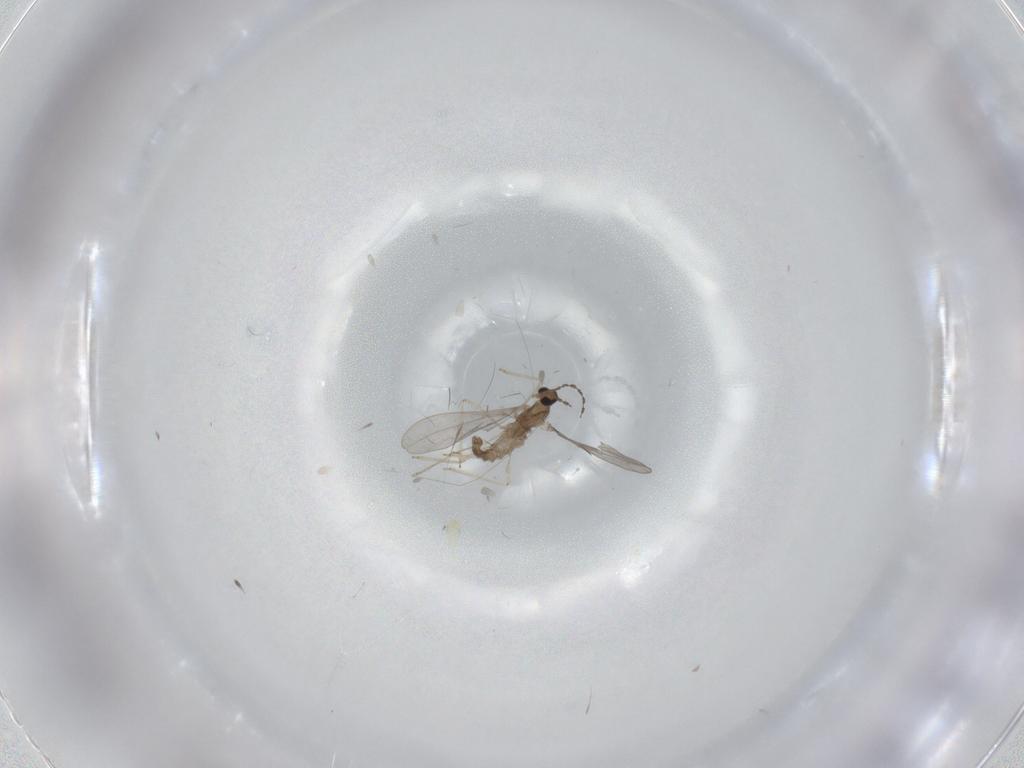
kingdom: Animalia
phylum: Arthropoda
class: Insecta
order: Diptera
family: Cecidomyiidae
